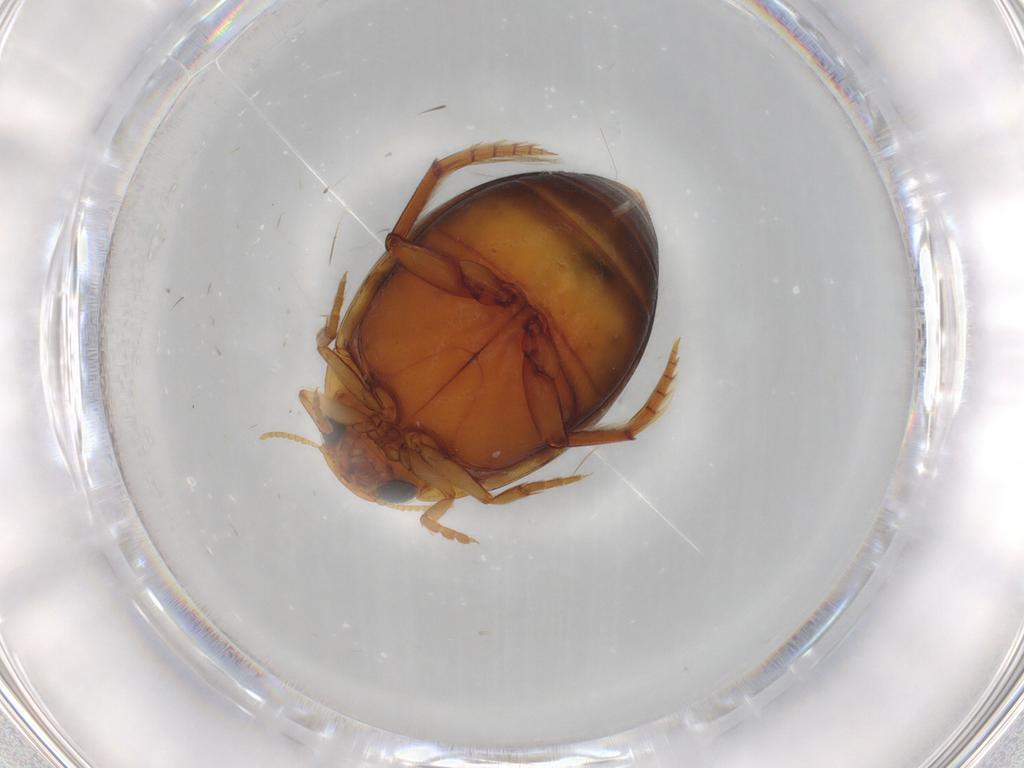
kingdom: Animalia
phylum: Arthropoda
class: Insecta
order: Coleoptera
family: Dytiscidae
